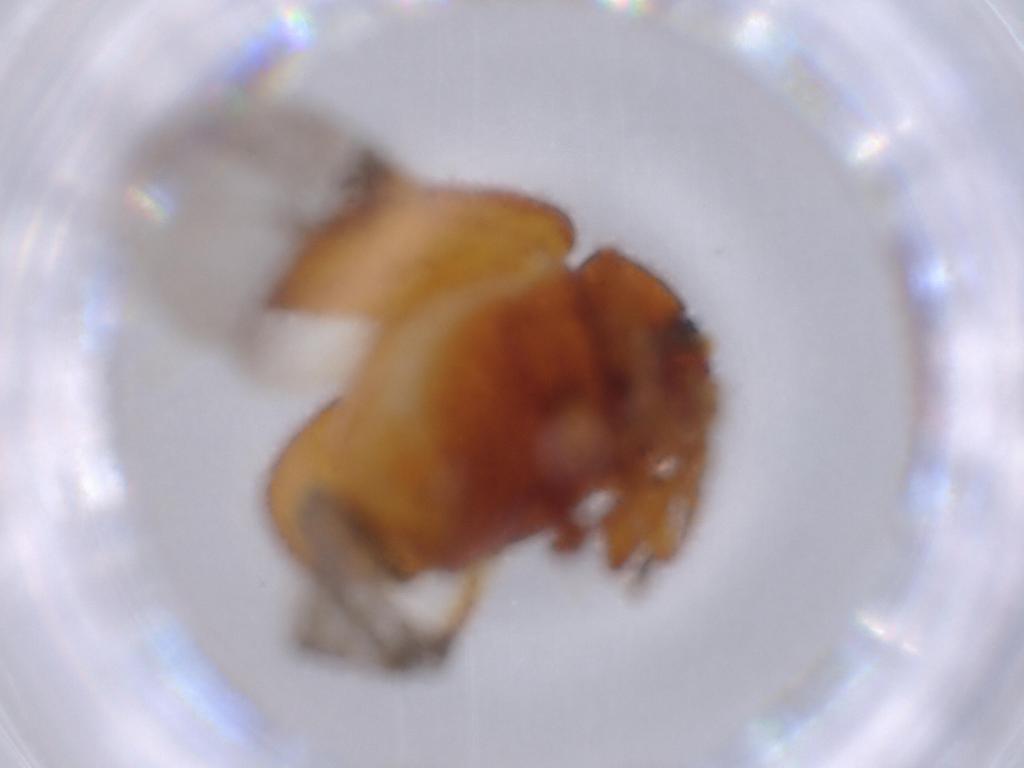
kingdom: Animalia
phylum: Arthropoda
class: Insecta
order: Coleoptera
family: Chrysomelidae
